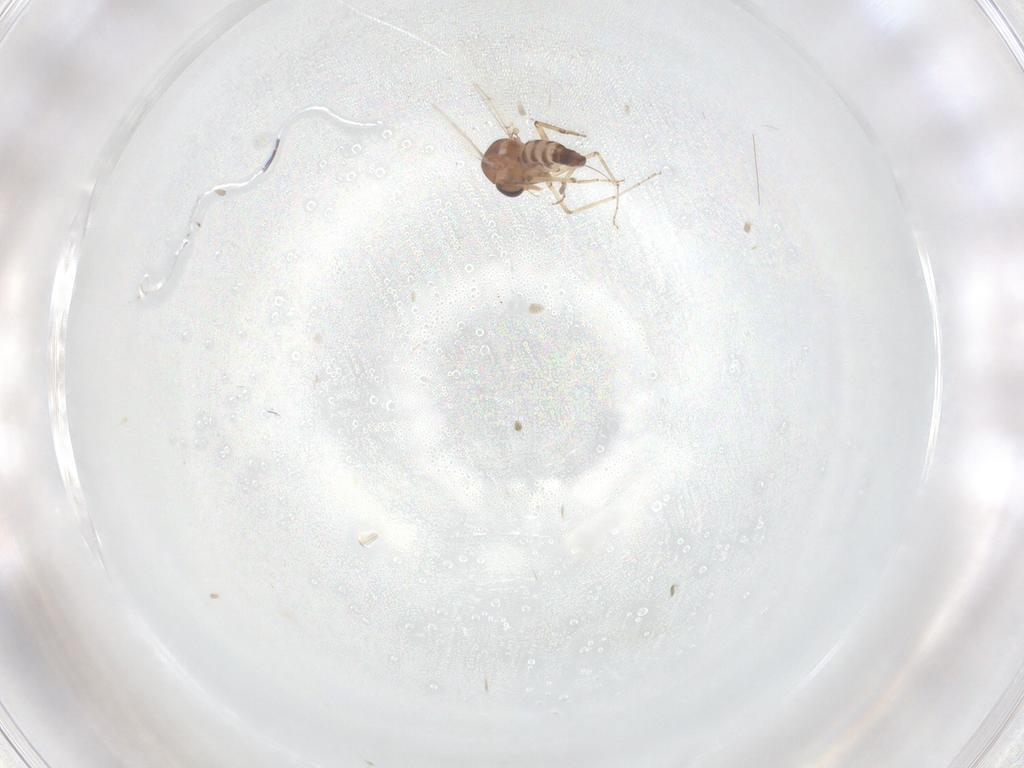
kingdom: Animalia
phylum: Arthropoda
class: Insecta
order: Diptera
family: Ceratopogonidae
